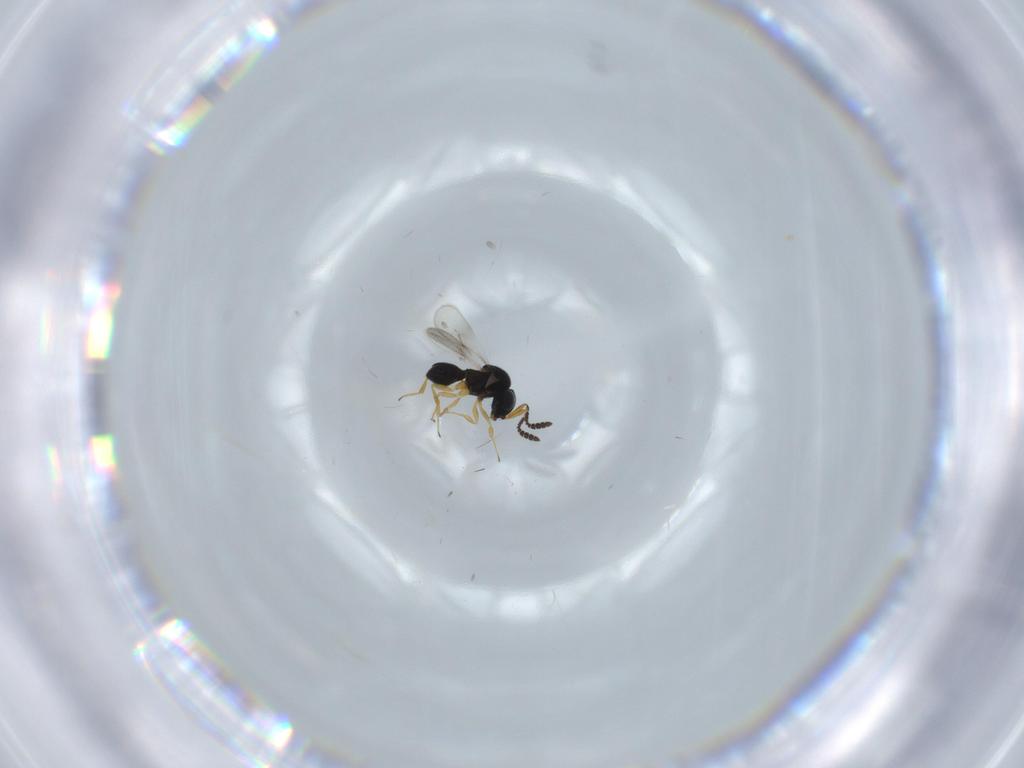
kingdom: Animalia
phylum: Arthropoda
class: Insecta
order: Hymenoptera
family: Scelionidae
